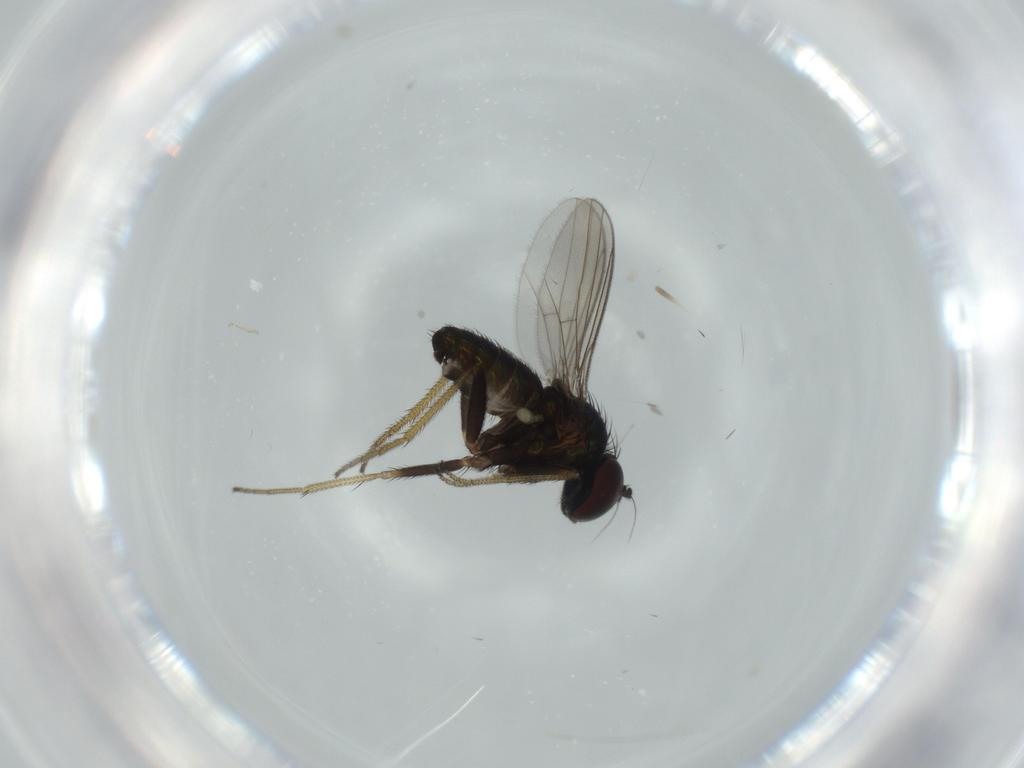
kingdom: Animalia
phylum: Arthropoda
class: Insecta
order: Diptera
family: Dolichopodidae
